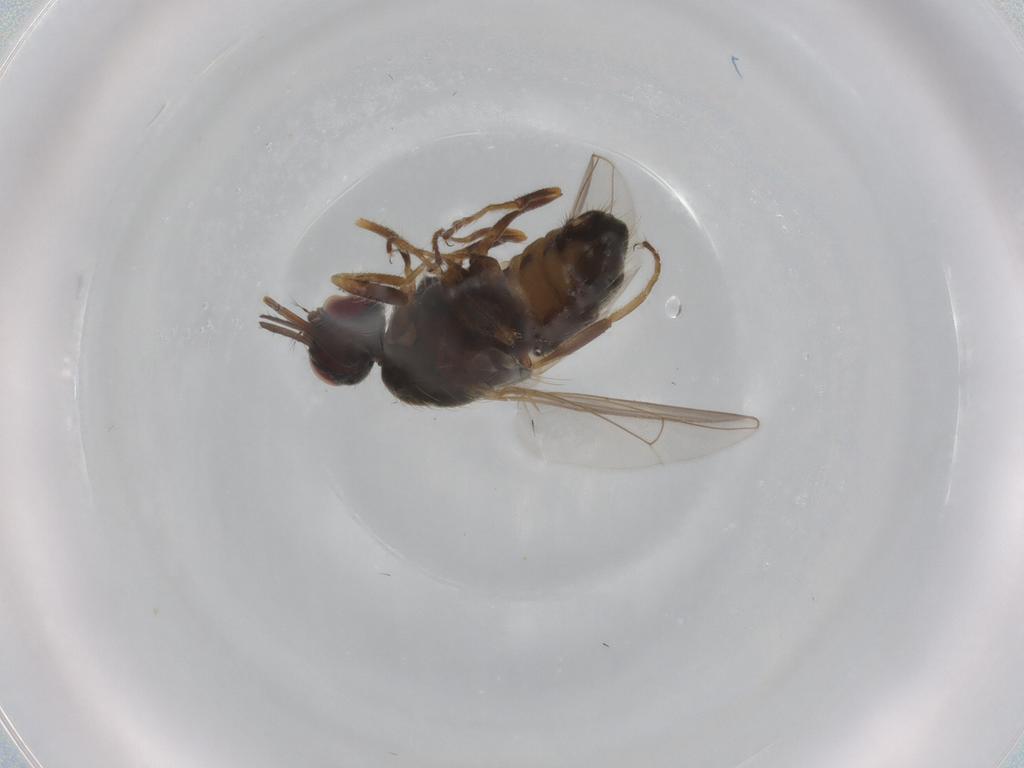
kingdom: Animalia
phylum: Arthropoda
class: Insecta
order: Diptera
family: Muscidae
